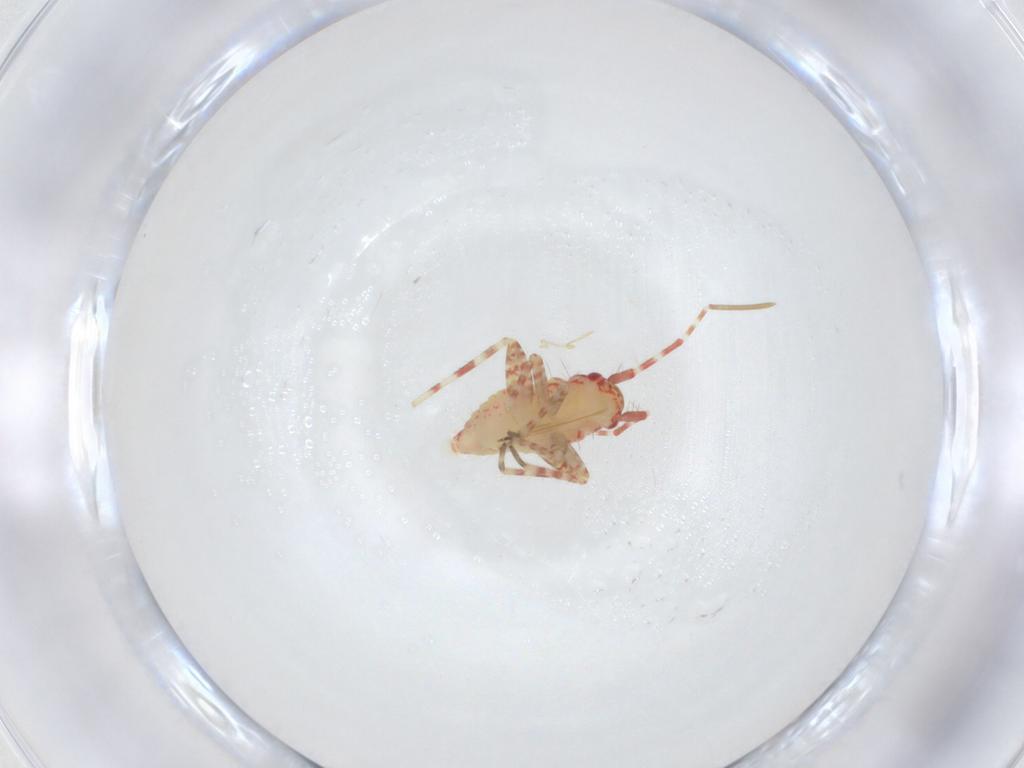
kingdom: Animalia
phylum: Arthropoda
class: Insecta
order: Hemiptera
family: Miridae
